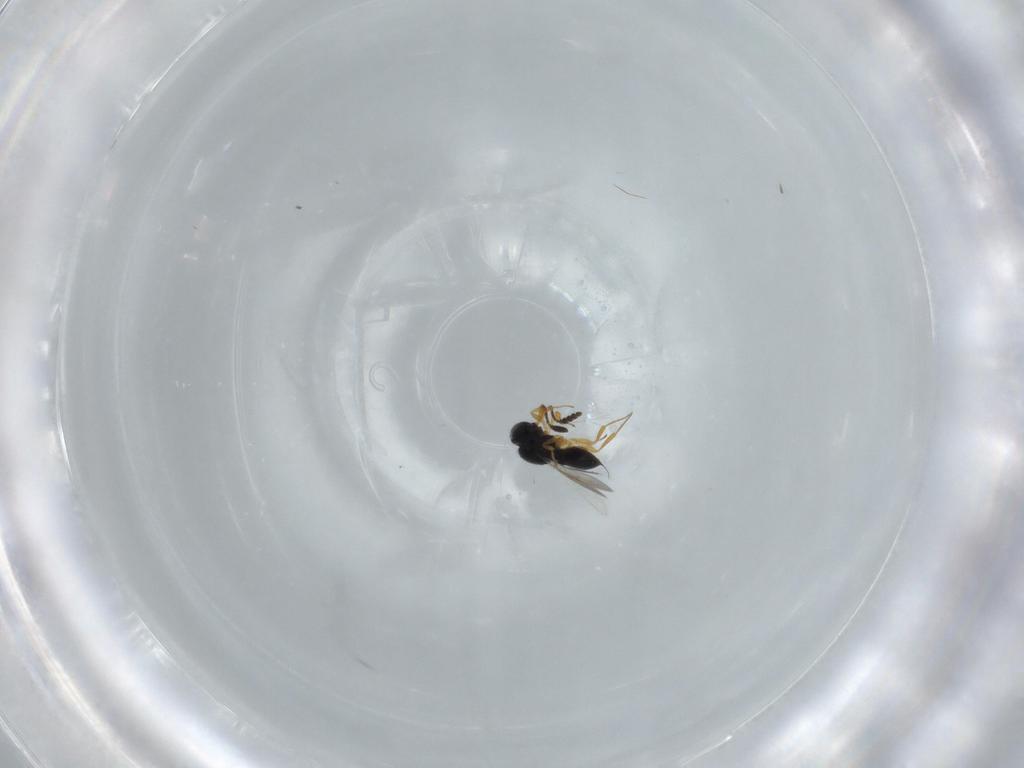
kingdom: Animalia
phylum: Arthropoda
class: Insecta
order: Hymenoptera
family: Scelionidae
